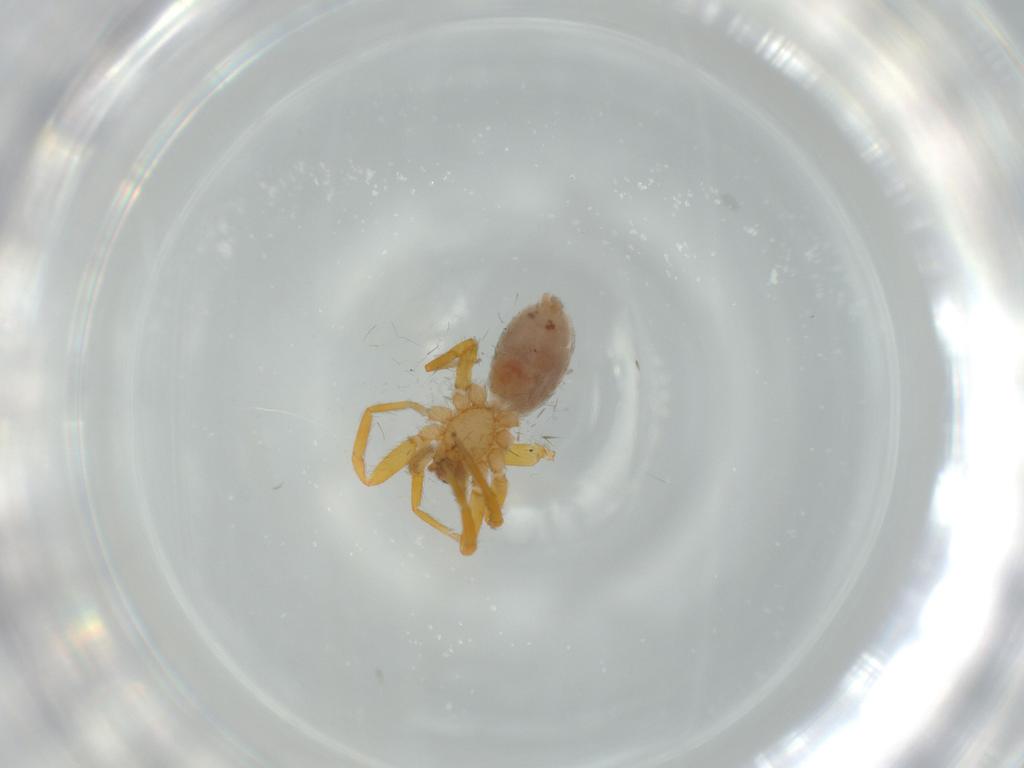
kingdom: Animalia
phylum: Arthropoda
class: Arachnida
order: Araneae
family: Oonopidae
